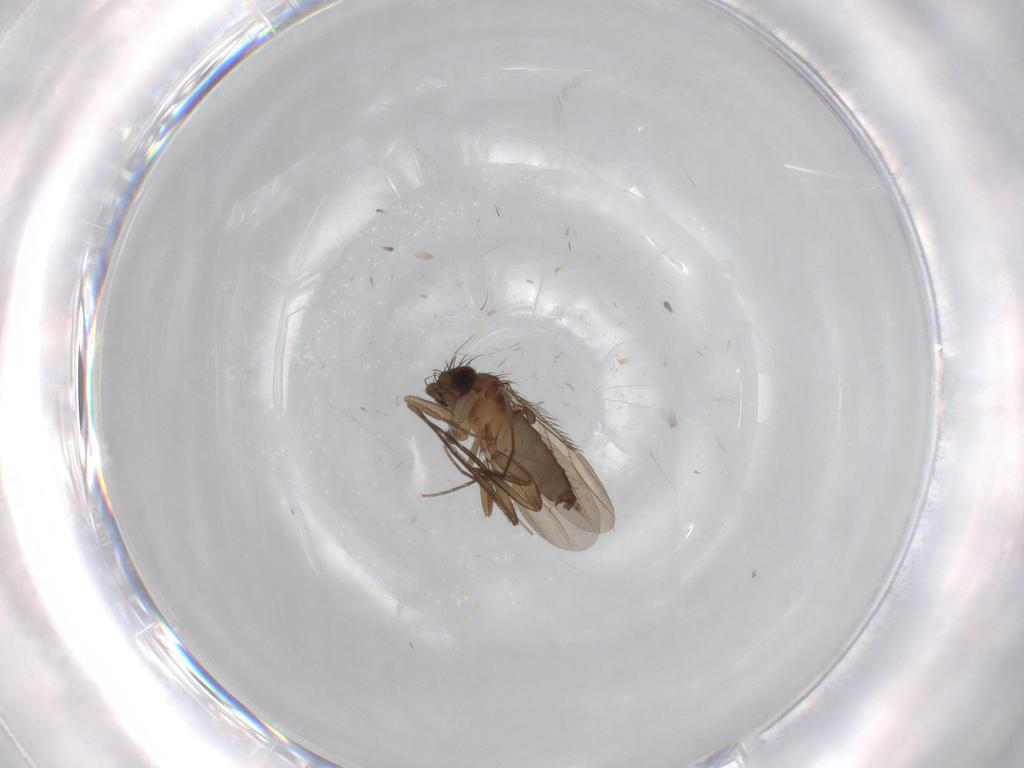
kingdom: Animalia
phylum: Arthropoda
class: Insecta
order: Diptera
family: Phoridae
